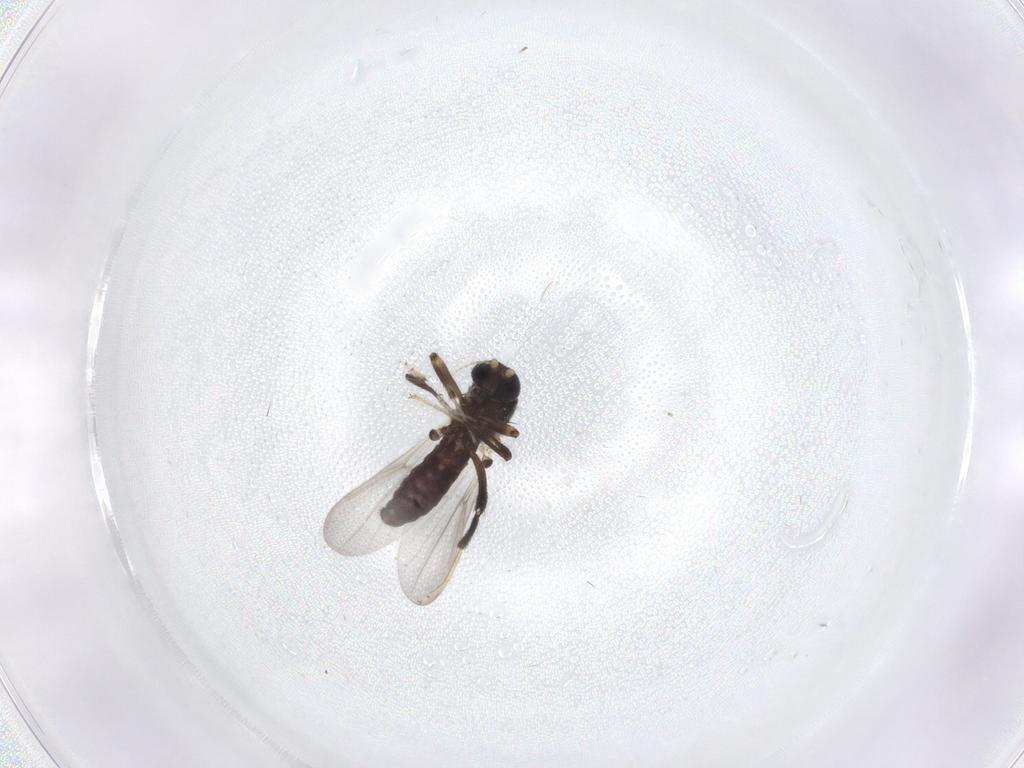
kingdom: Animalia
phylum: Arthropoda
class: Insecta
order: Diptera
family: Ceratopogonidae
